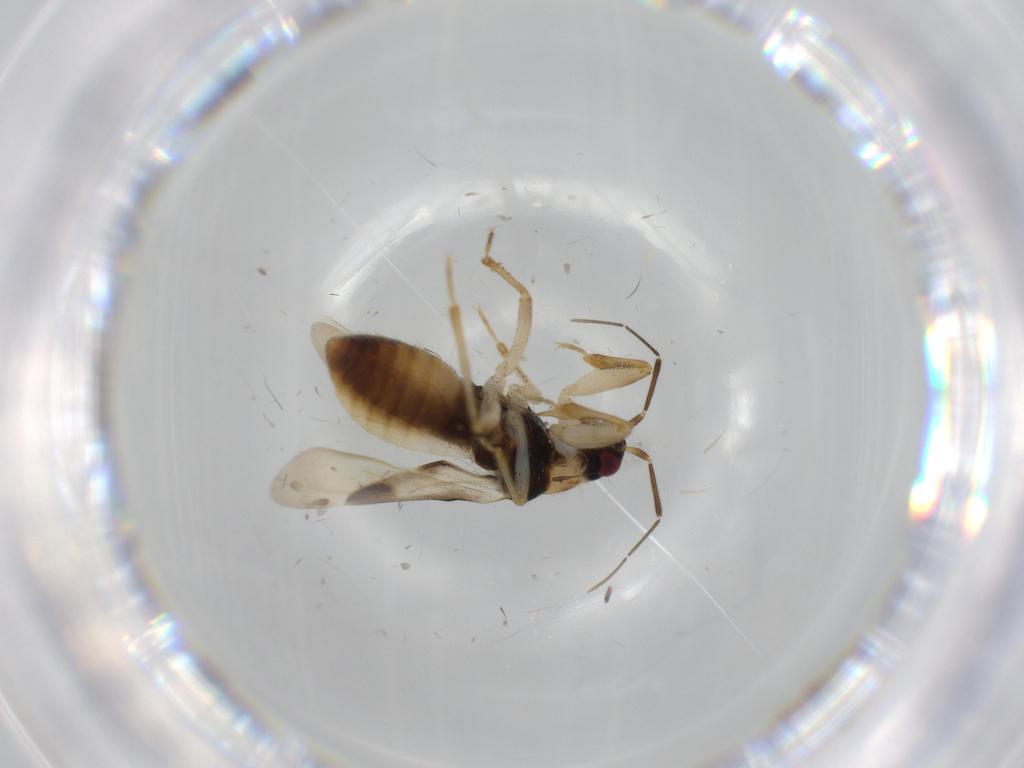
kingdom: Animalia
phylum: Arthropoda
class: Insecta
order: Hemiptera
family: Nabidae
